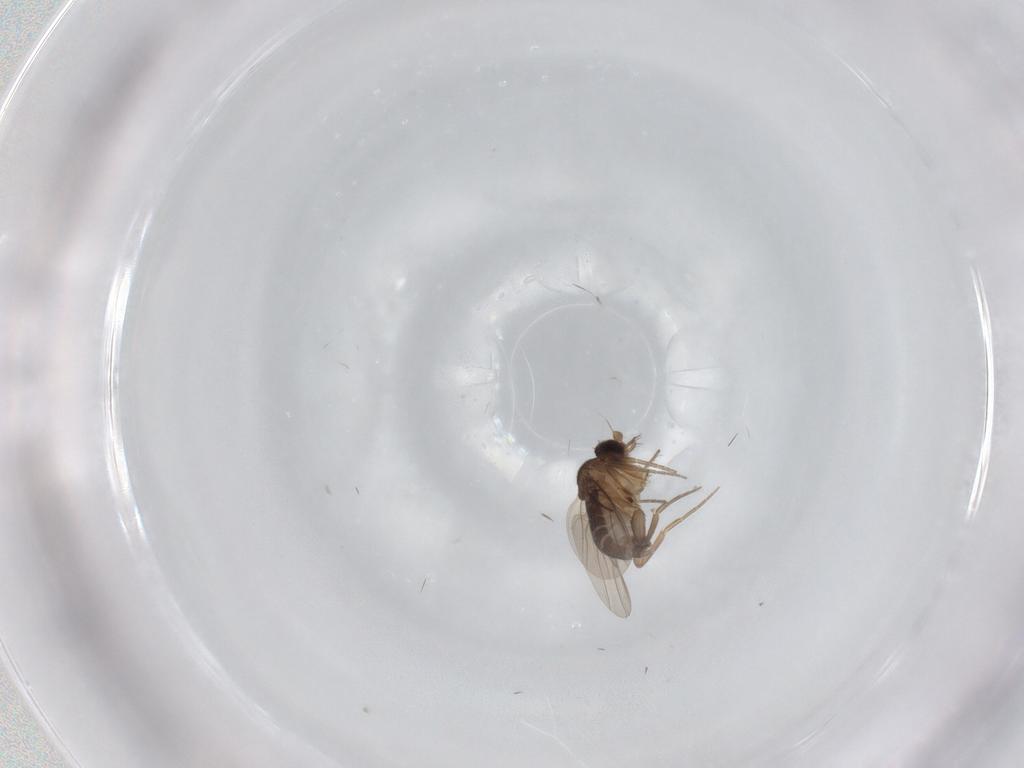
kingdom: Animalia
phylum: Arthropoda
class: Insecta
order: Diptera
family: Phoridae
